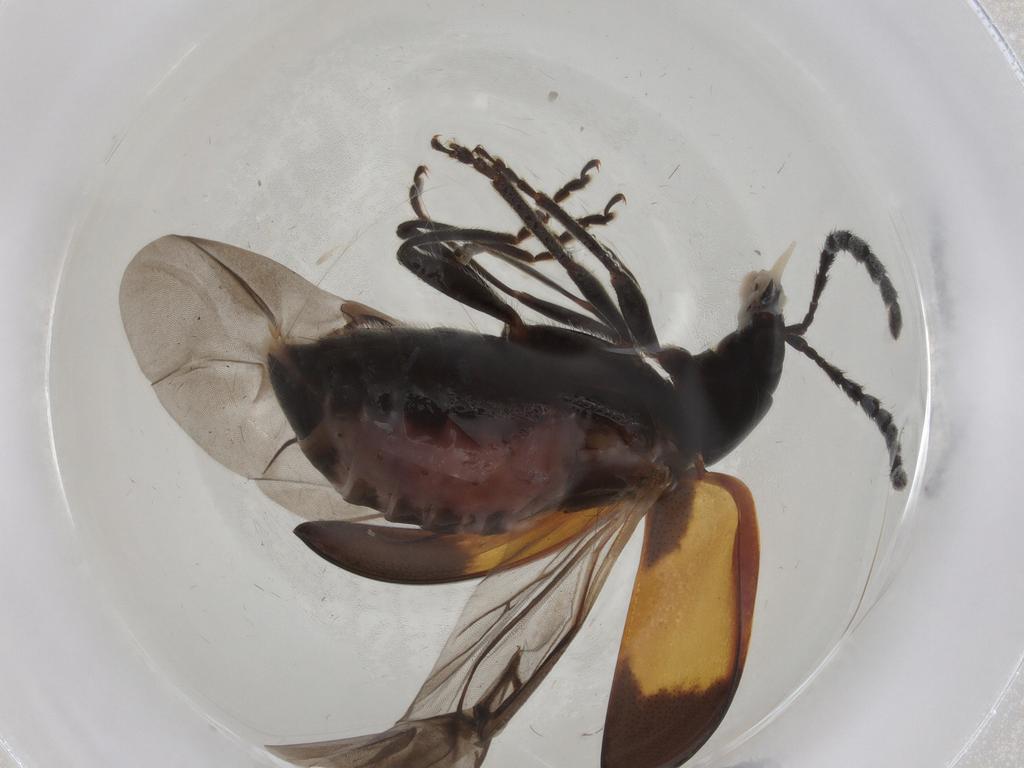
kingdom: Animalia
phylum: Arthropoda
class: Insecta
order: Coleoptera
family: Chrysomelidae
